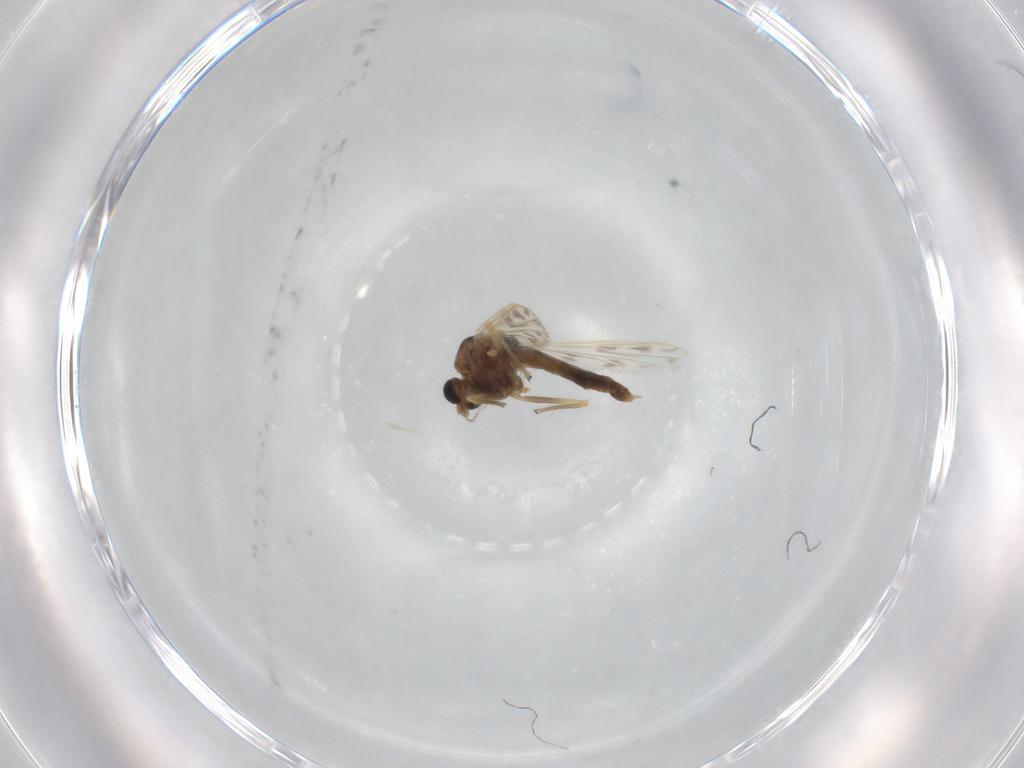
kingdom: Animalia
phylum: Arthropoda
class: Insecta
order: Diptera
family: Chironomidae
